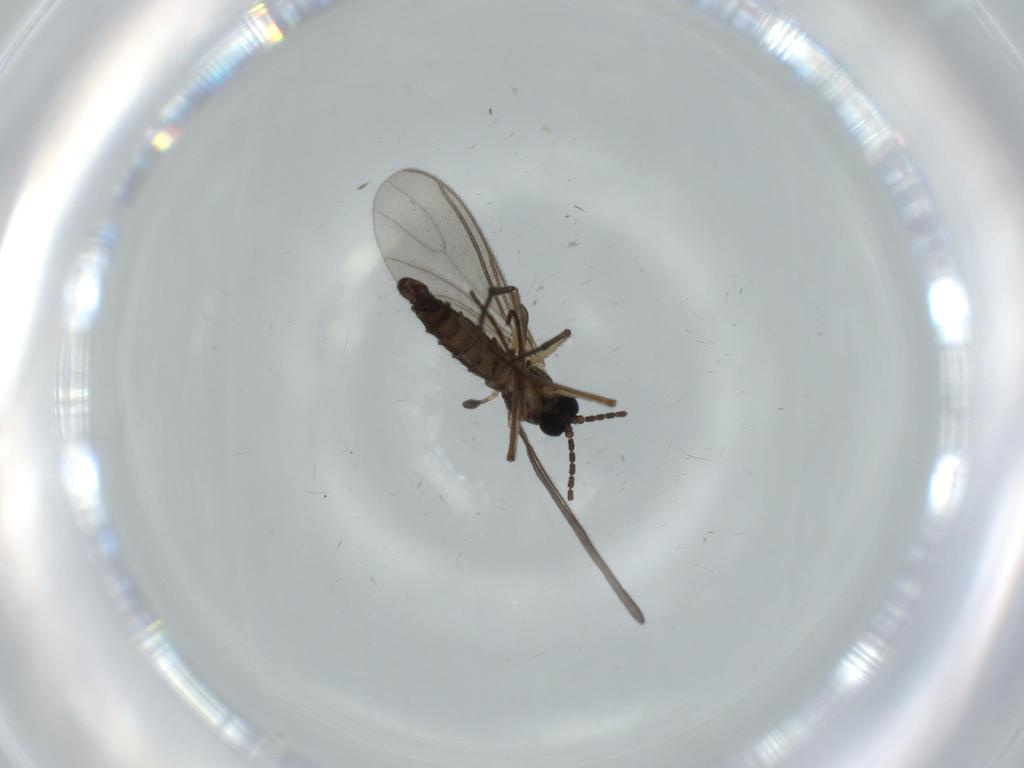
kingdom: Animalia
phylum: Arthropoda
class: Insecta
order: Diptera
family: Sciaridae
